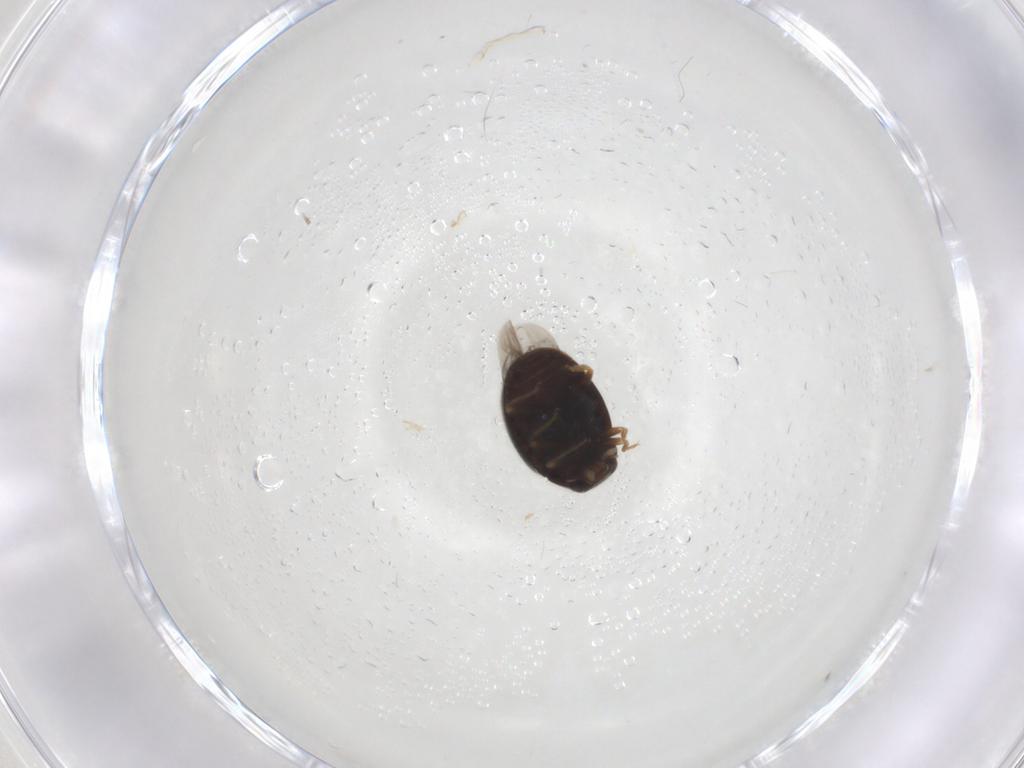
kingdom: Animalia
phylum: Arthropoda
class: Insecta
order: Coleoptera
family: Coccinellidae
